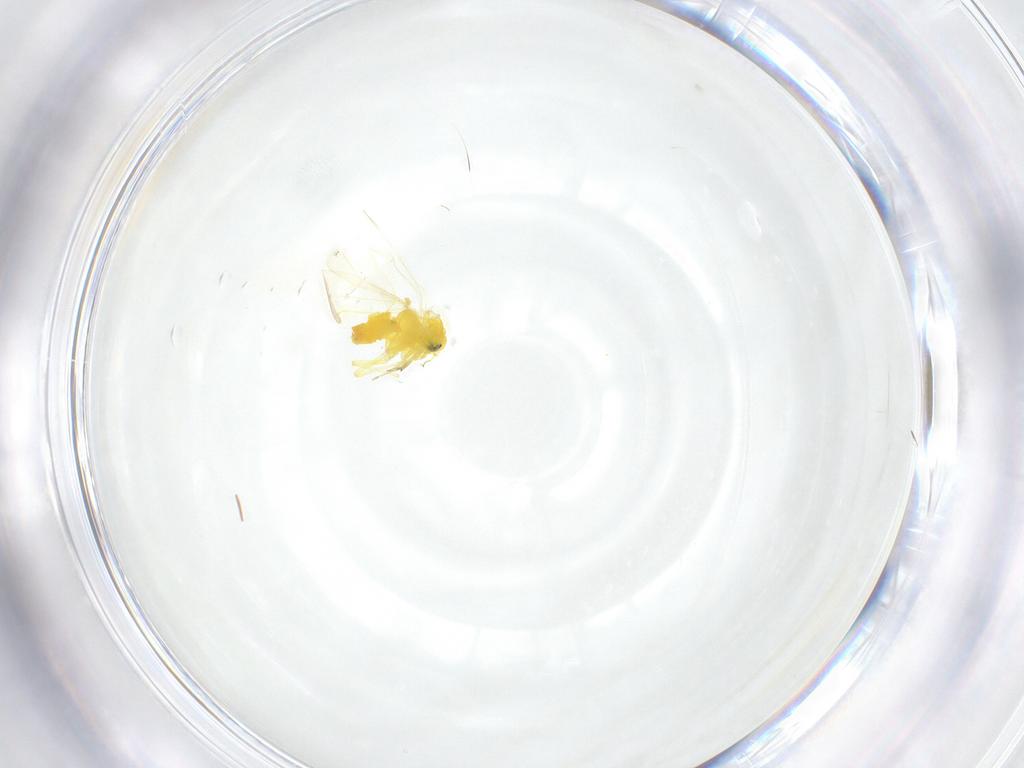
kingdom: Animalia
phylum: Arthropoda
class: Insecta
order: Hemiptera
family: Aleyrodidae
